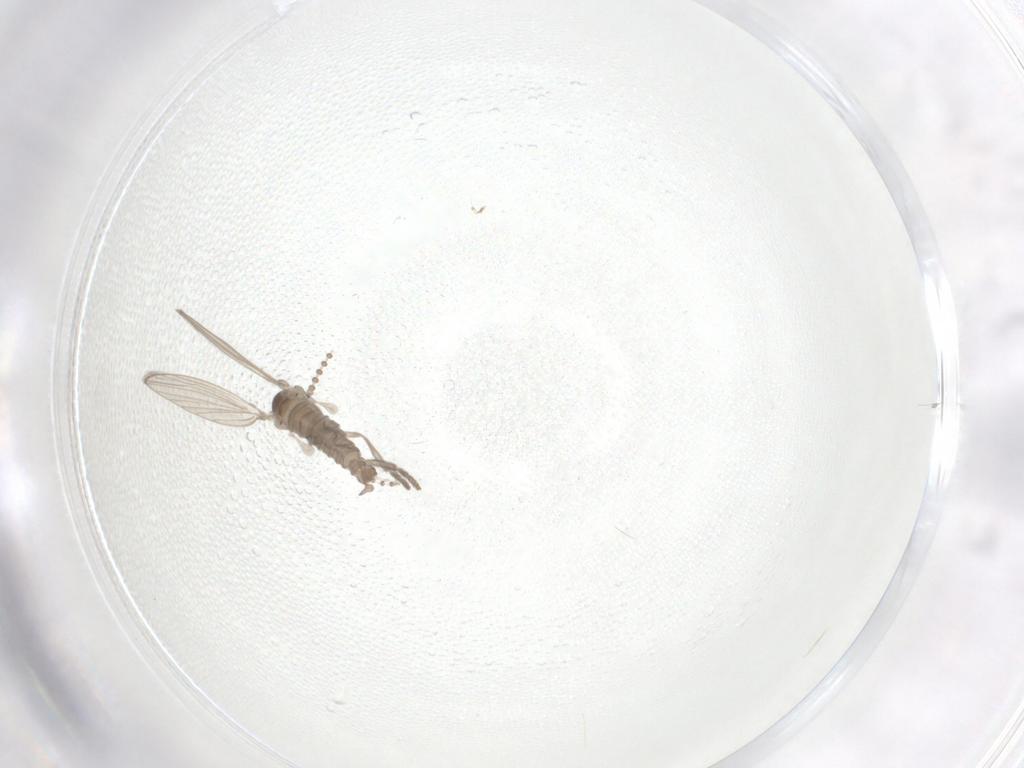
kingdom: Animalia
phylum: Arthropoda
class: Insecta
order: Diptera
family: Psychodidae
